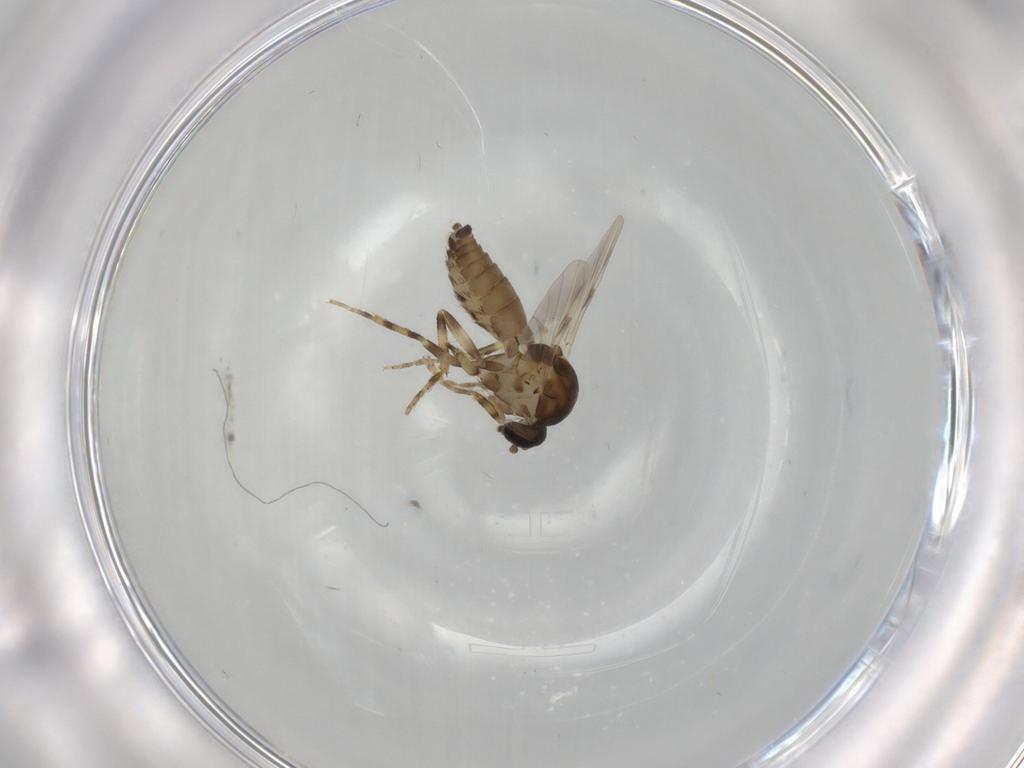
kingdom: Animalia
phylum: Arthropoda
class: Insecta
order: Diptera
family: Ceratopogonidae
